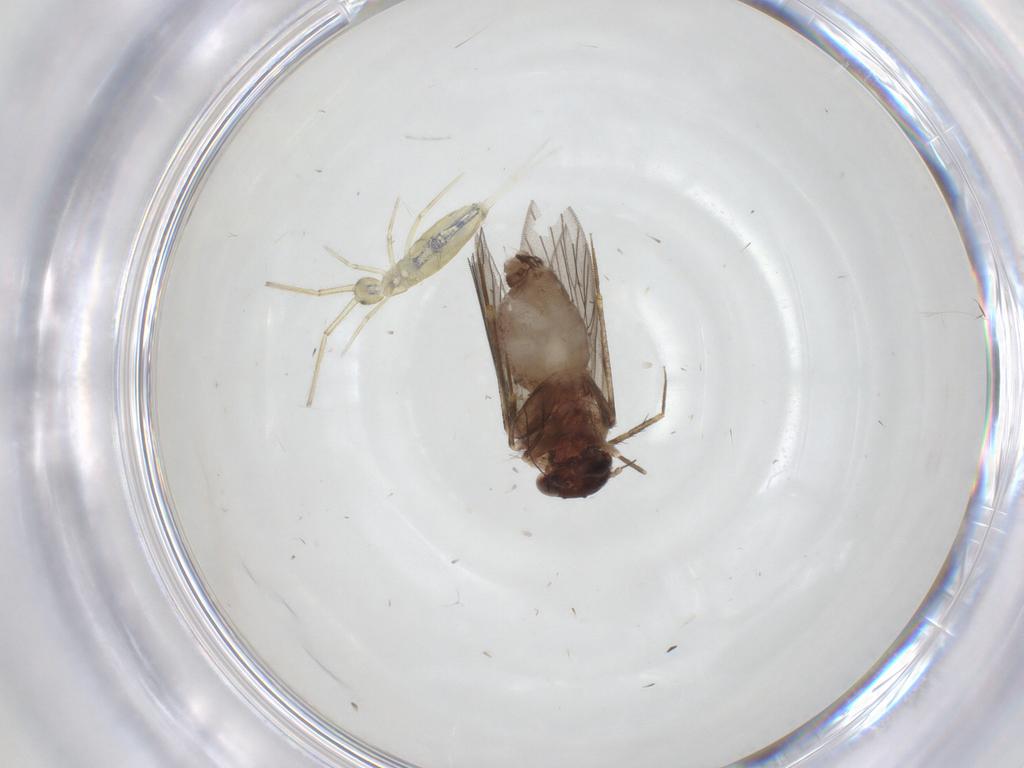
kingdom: Animalia
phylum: Arthropoda
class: Insecta
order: Psocodea
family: Lepidopsocidae
